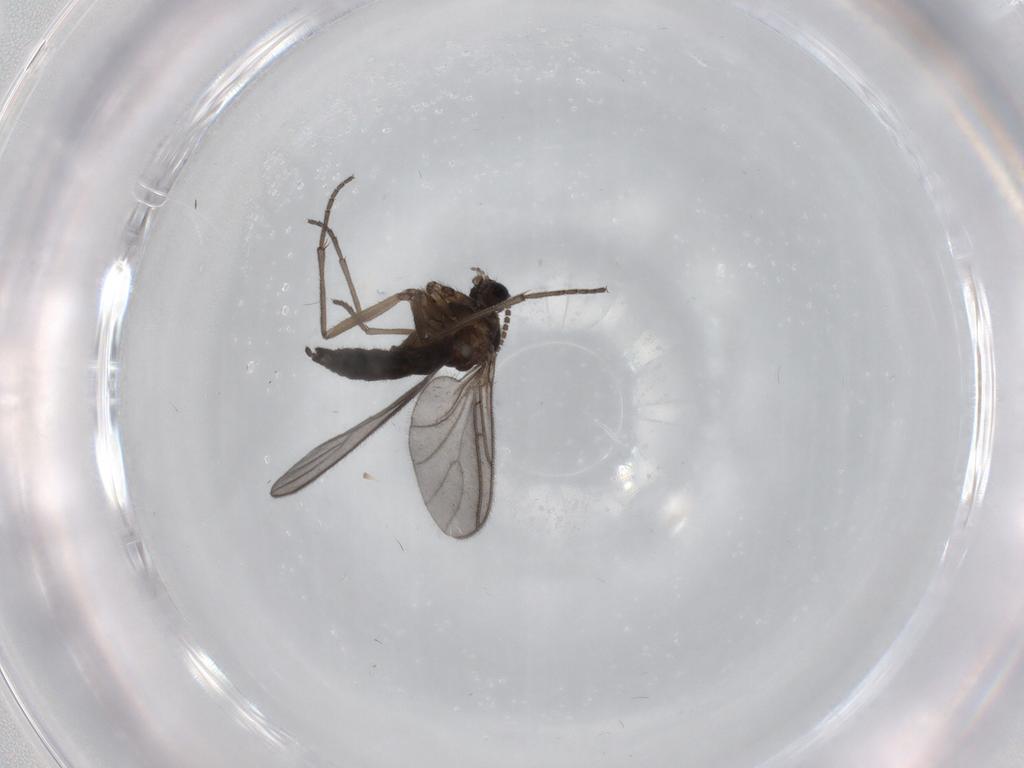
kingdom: Animalia
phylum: Arthropoda
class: Insecta
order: Diptera
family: Sciaridae
